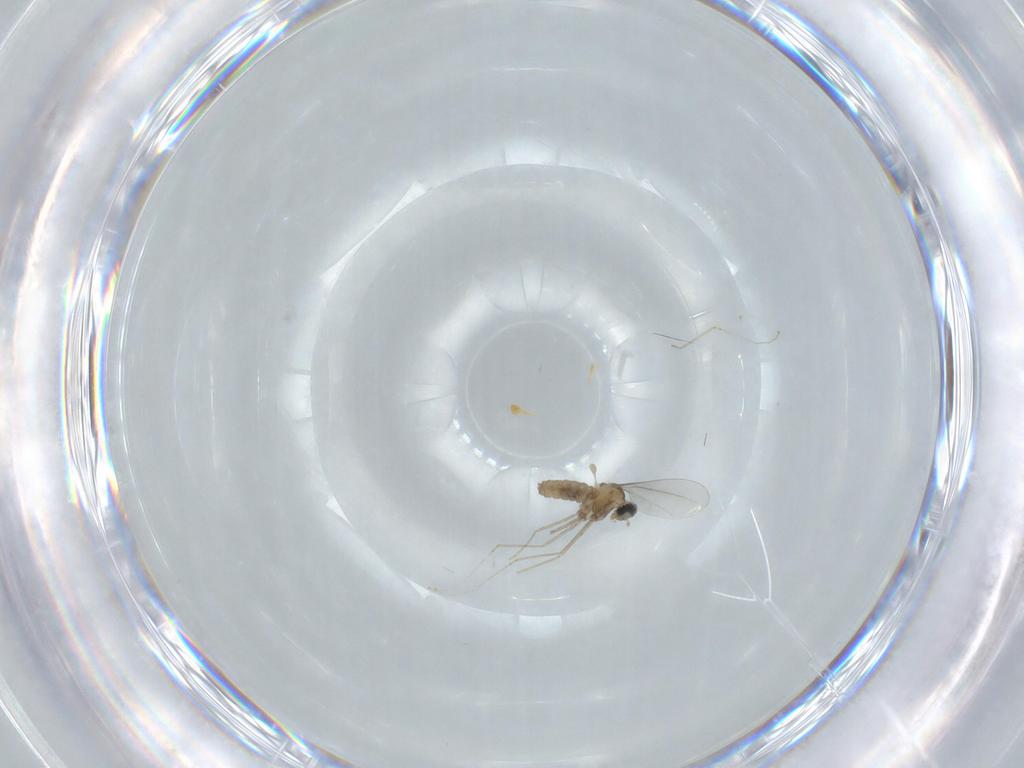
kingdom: Animalia
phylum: Arthropoda
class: Insecta
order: Diptera
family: Cecidomyiidae
